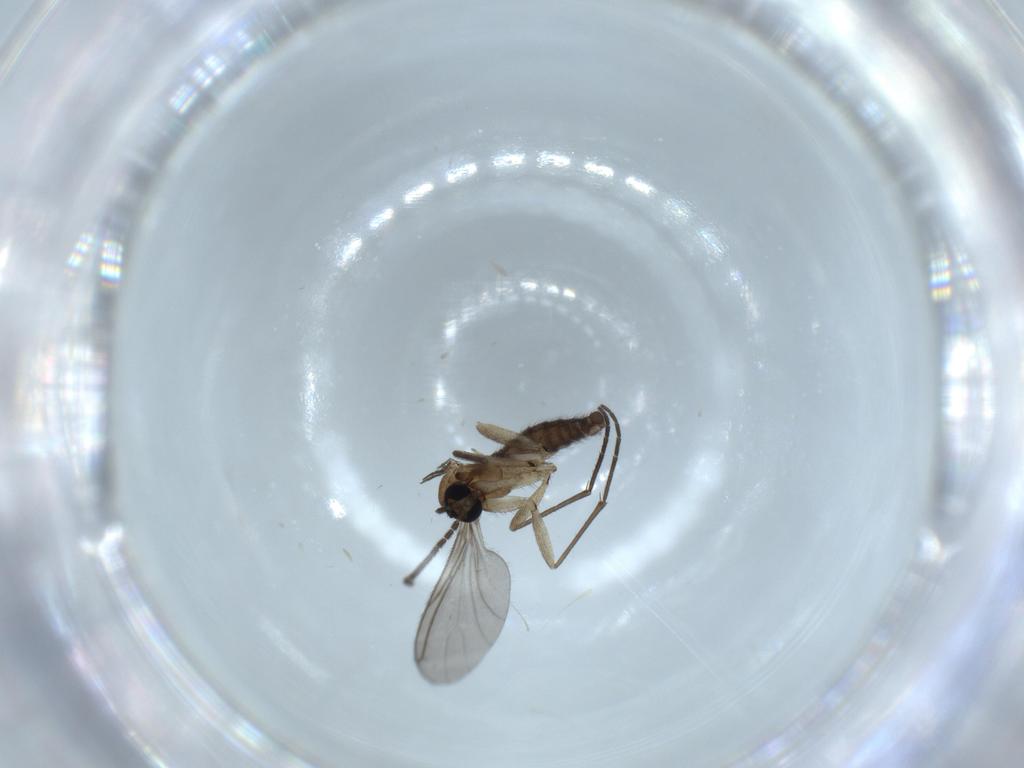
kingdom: Animalia
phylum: Arthropoda
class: Insecta
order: Diptera
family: Sciaridae
